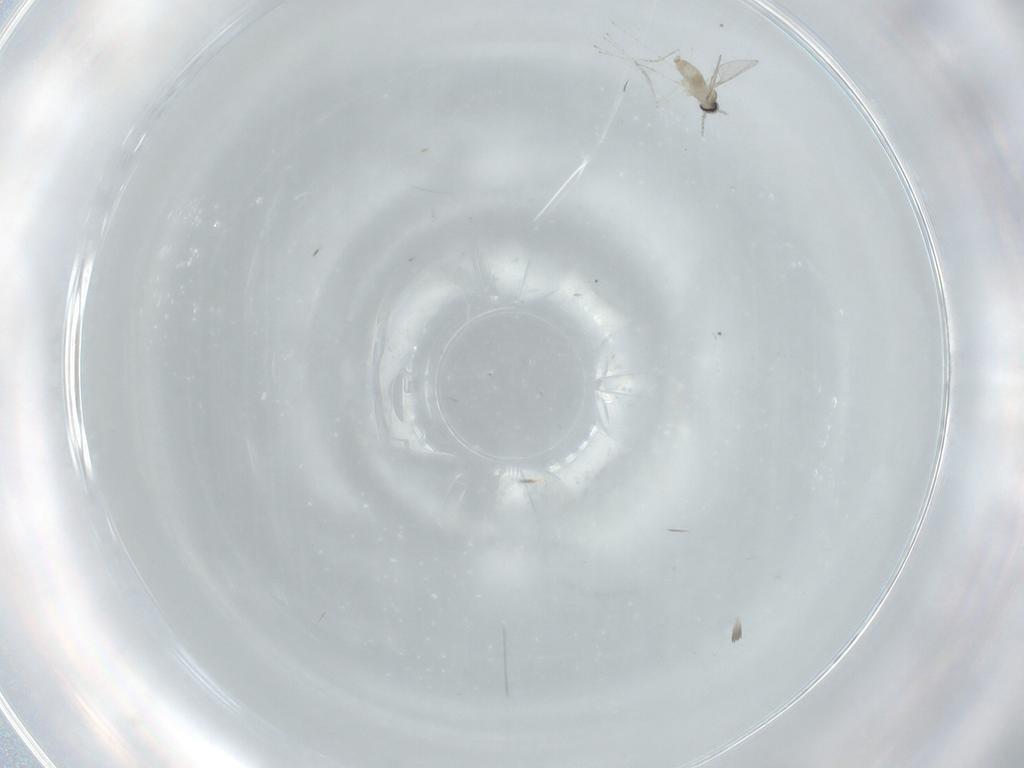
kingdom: Animalia
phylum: Arthropoda
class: Insecta
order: Diptera
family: Cecidomyiidae
